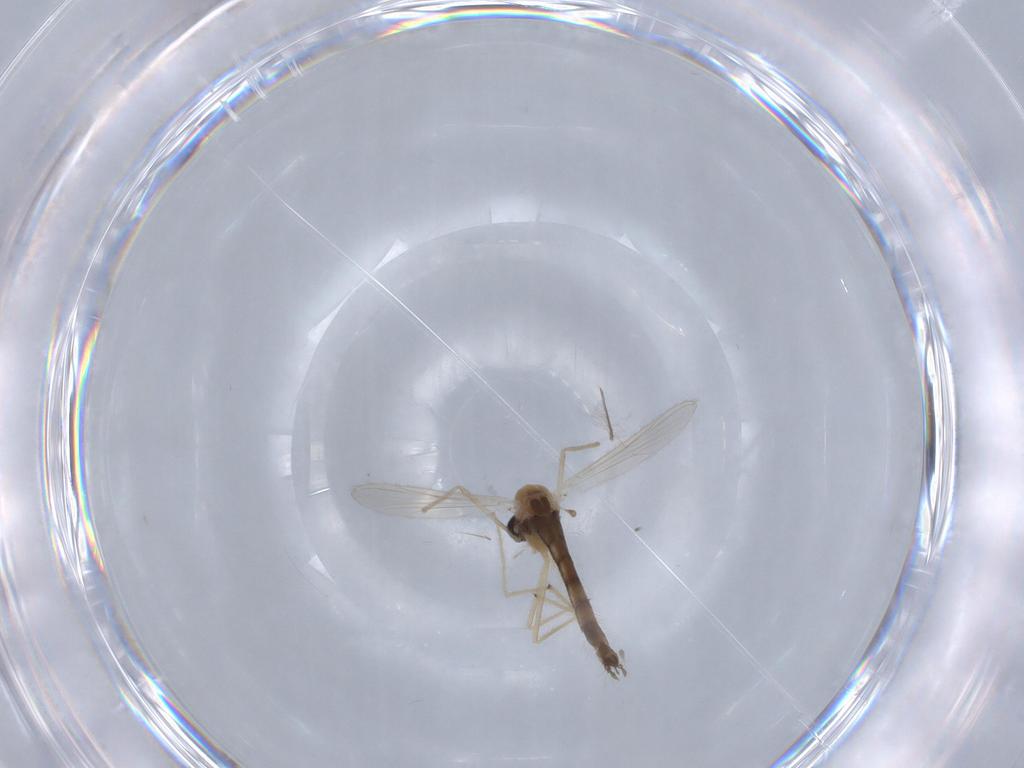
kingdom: Animalia
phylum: Arthropoda
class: Insecta
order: Diptera
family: Chironomidae
